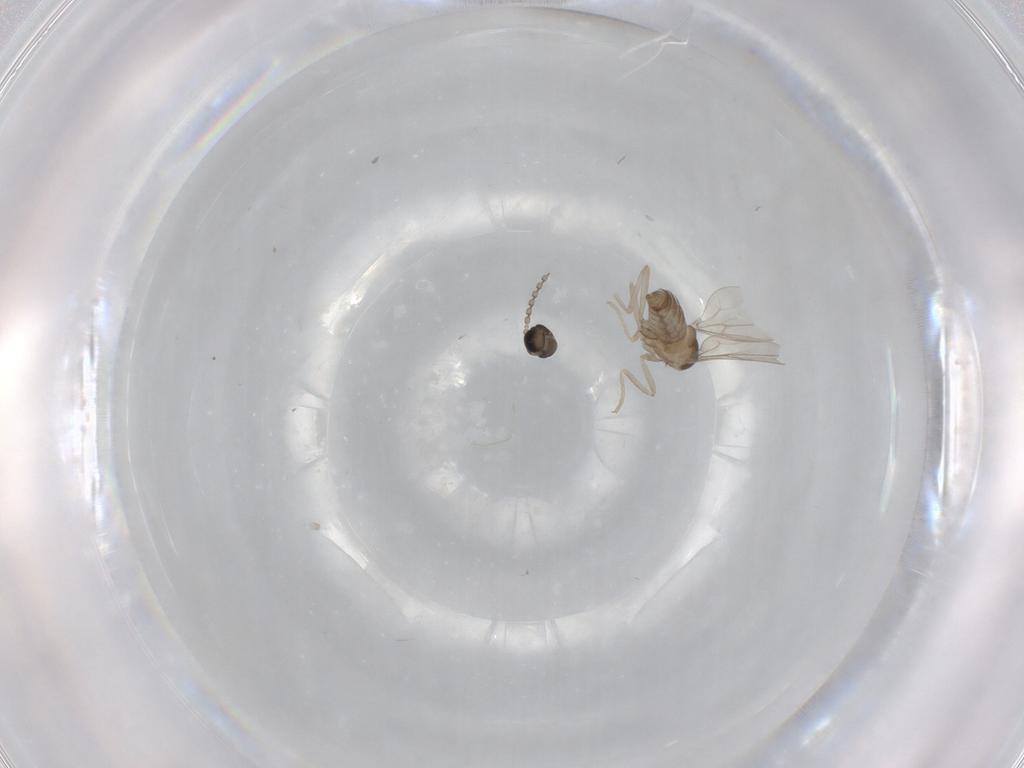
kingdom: Animalia
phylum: Arthropoda
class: Insecta
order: Diptera
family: Cecidomyiidae
